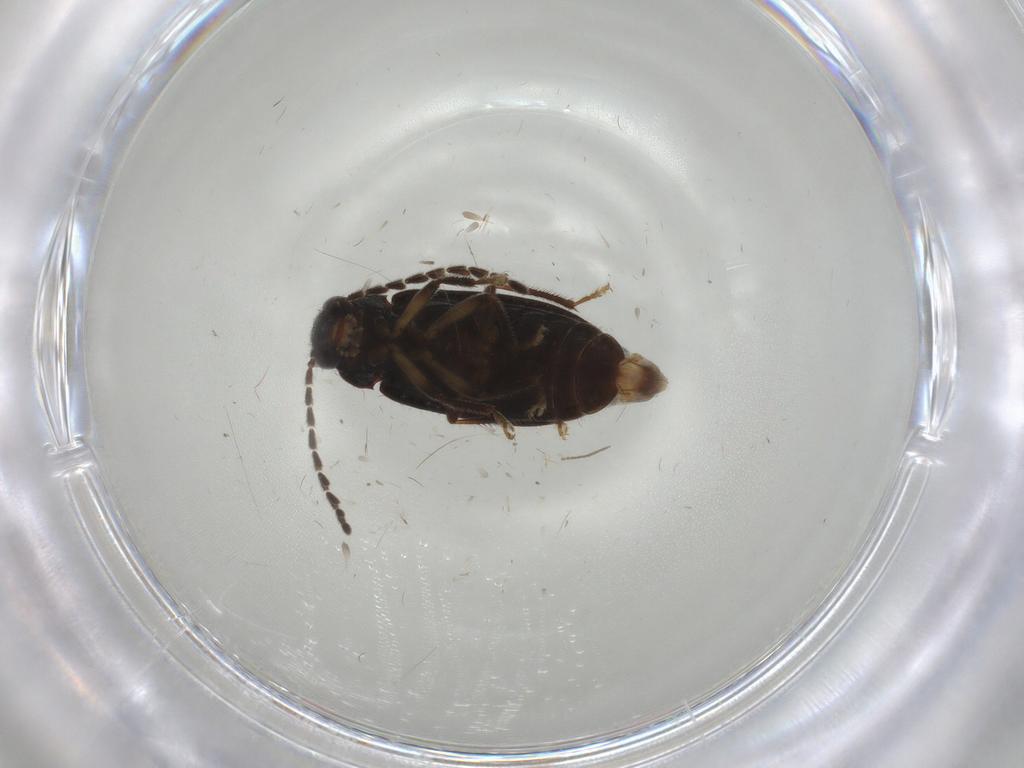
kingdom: Animalia
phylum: Arthropoda
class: Insecta
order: Coleoptera
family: Ptilodactylidae
